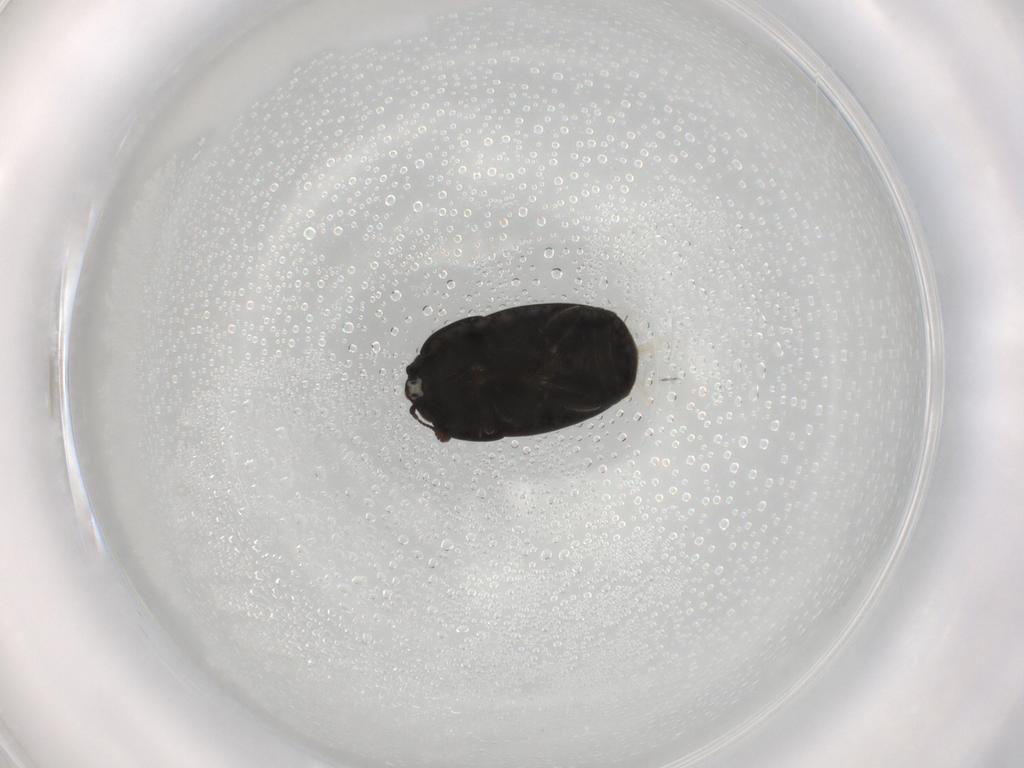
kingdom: Animalia
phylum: Arthropoda
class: Insecta
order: Coleoptera
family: Nitidulidae
